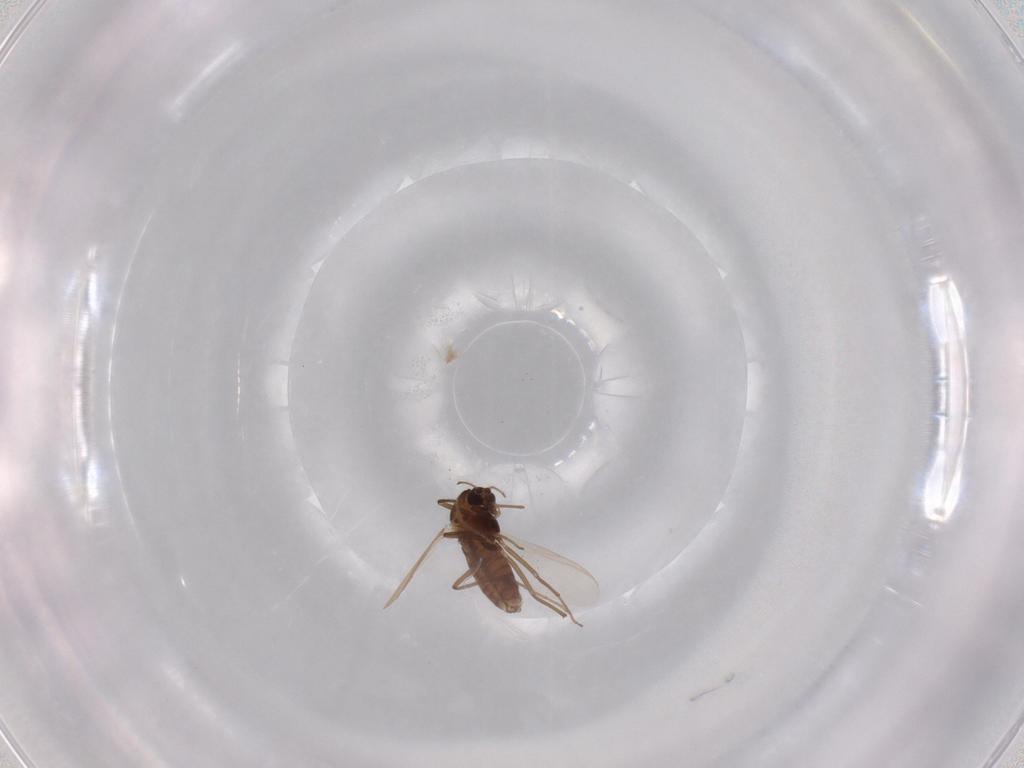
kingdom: Animalia
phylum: Arthropoda
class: Insecta
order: Diptera
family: Chironomidae
